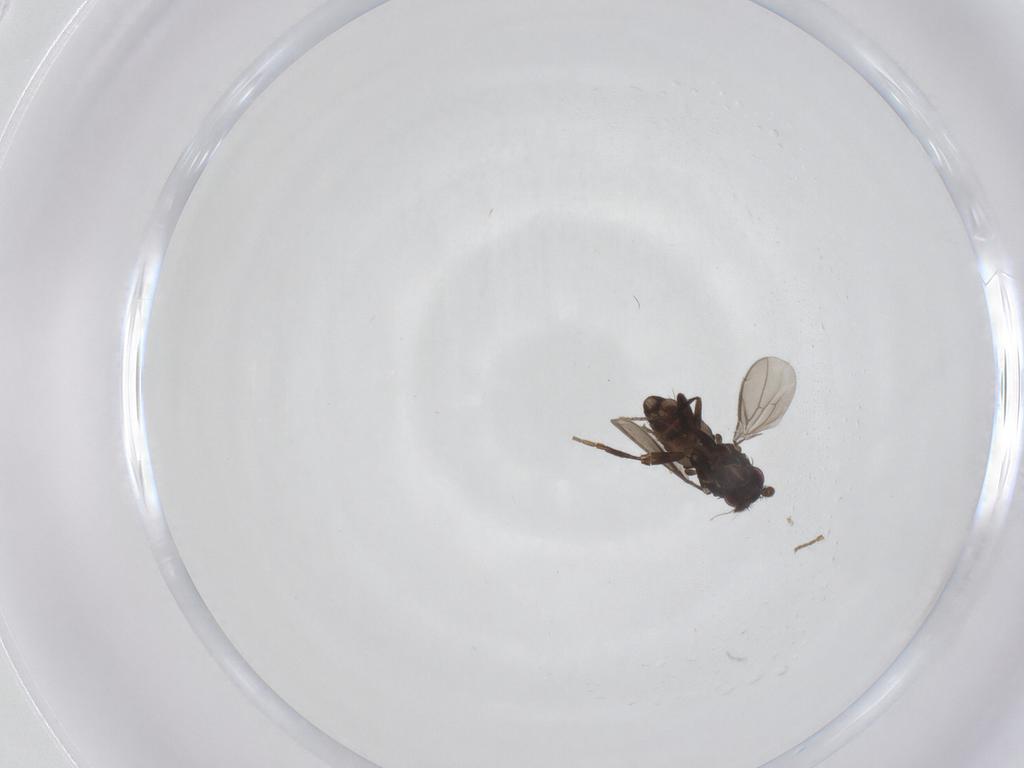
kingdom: Animalia
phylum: Arthropoda
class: Insecta
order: Diptera
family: Sphaeroceridae
